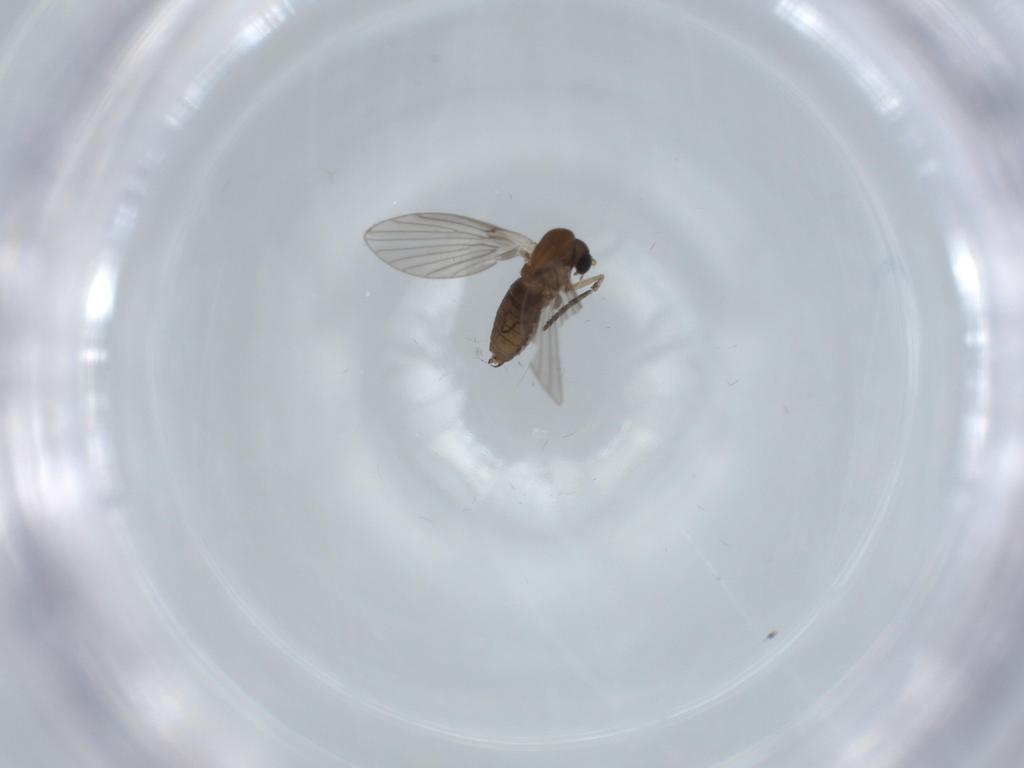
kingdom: Animalia
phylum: Arthropoda
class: Insecta
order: Diptera
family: Psychodidae
